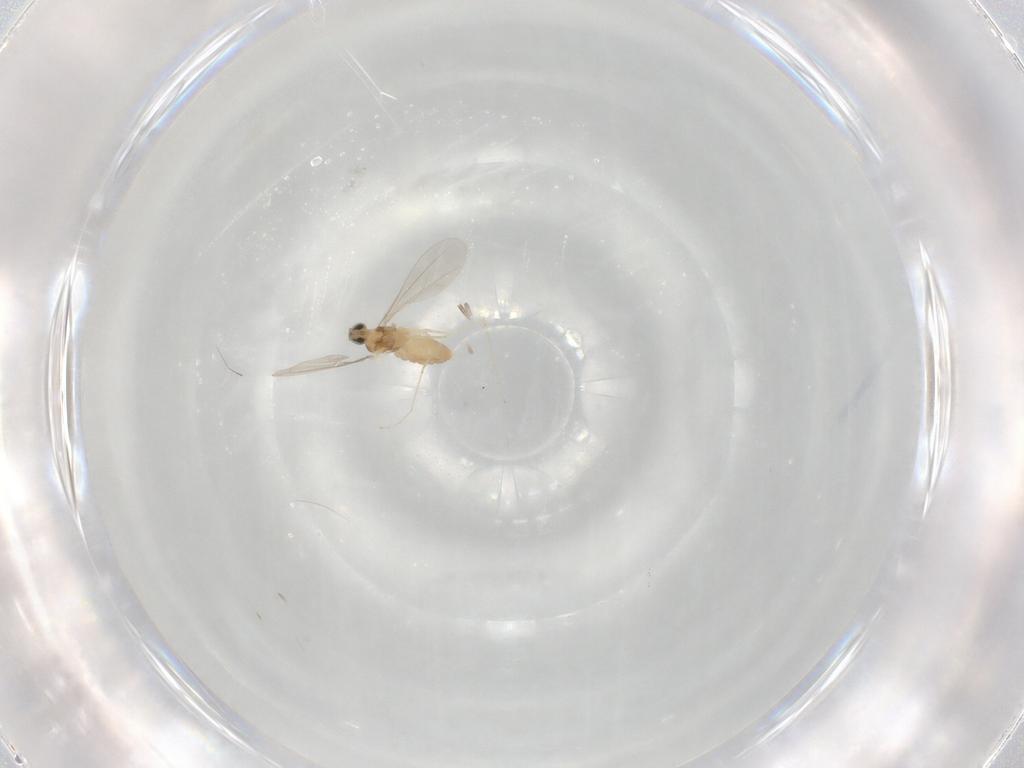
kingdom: Animalia
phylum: Arthropoda
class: Insecta
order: Diptera
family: Cecidomyiidae
